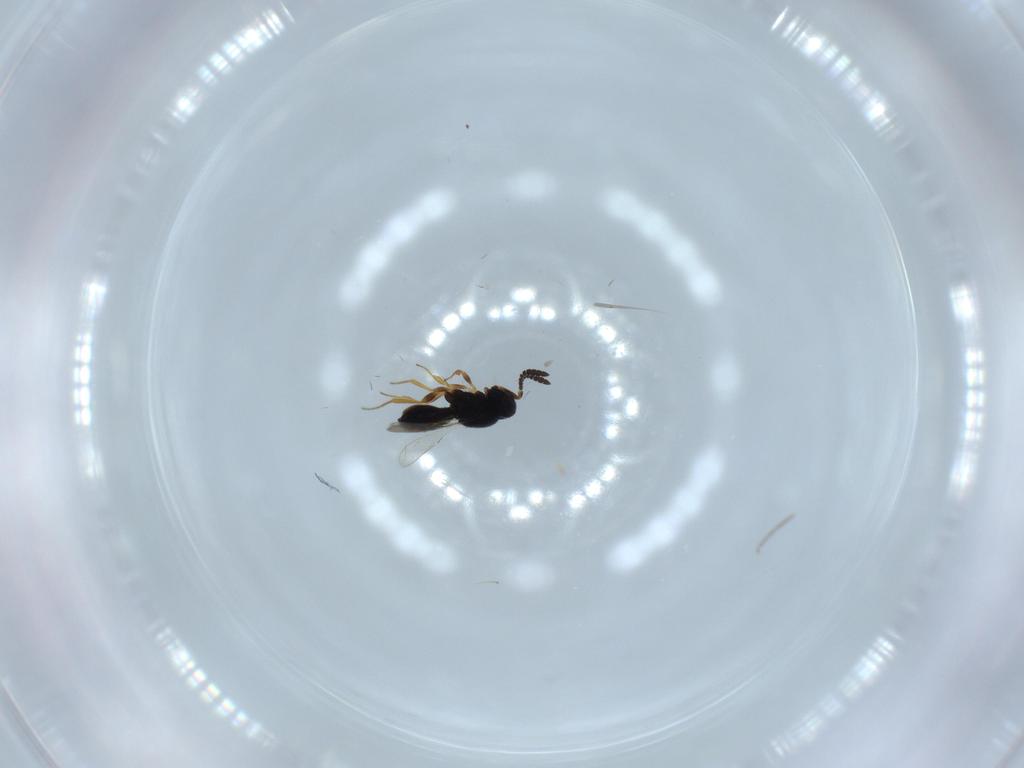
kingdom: Animalia
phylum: Arthropoda
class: Insecta
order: Hymenoptera
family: Scelionidae
